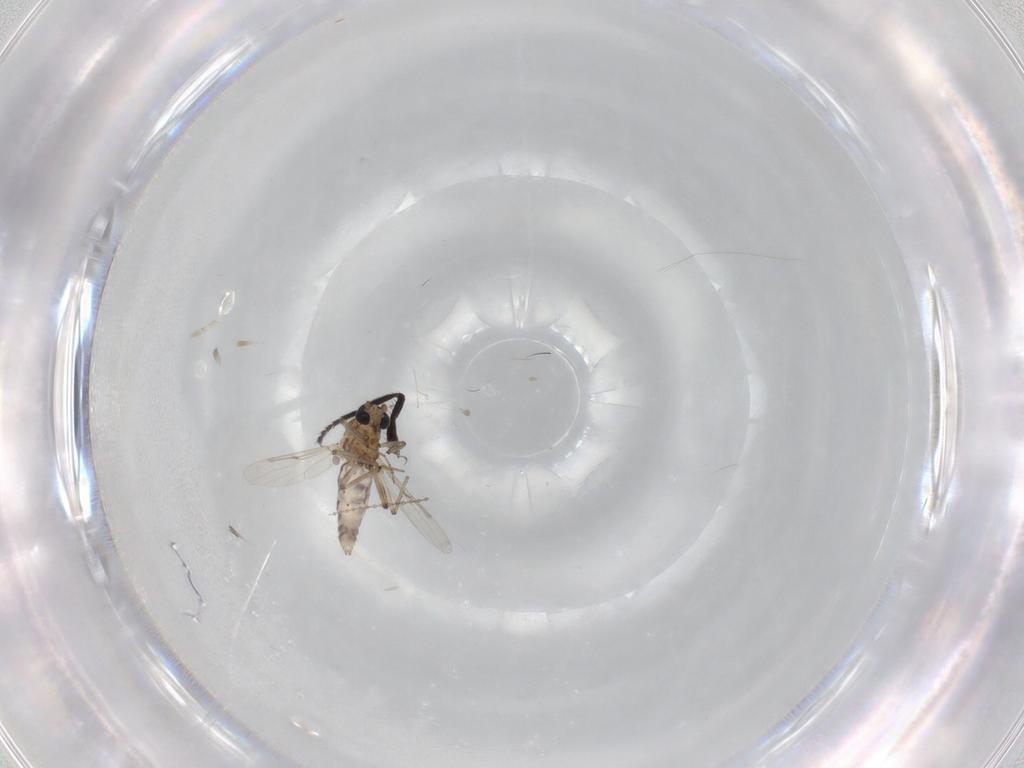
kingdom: Animalia
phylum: Arthropoda
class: Insecta
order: Diptera
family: Ceratopogonidae
